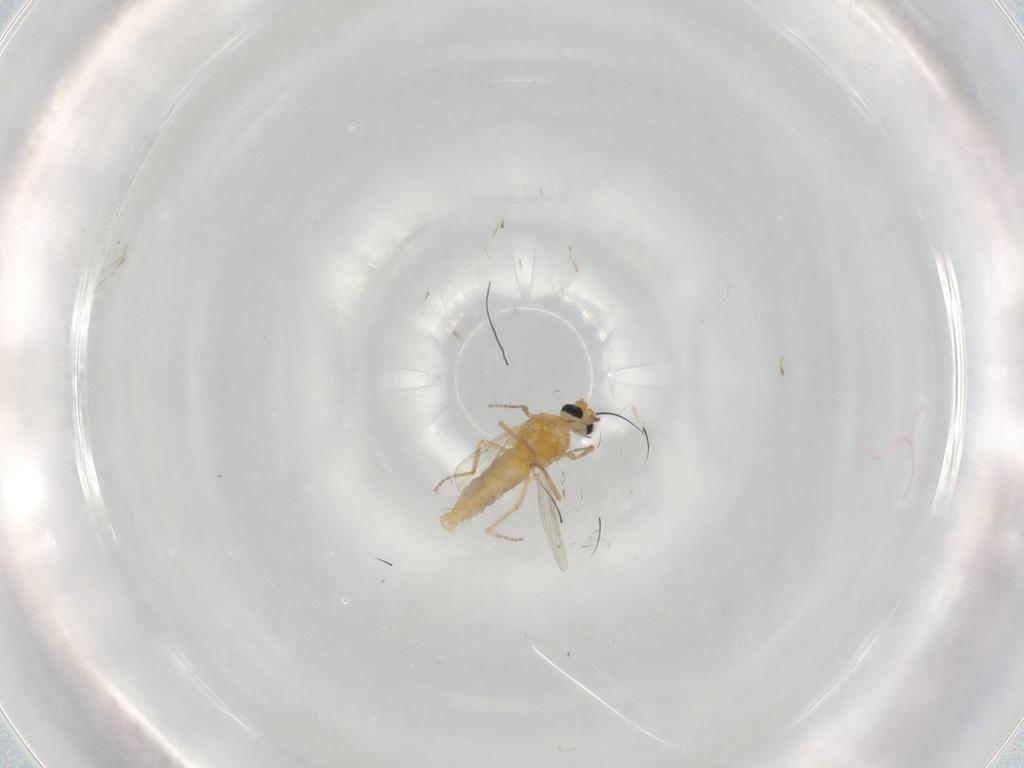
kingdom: Animalia
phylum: Arthropoda
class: Insecta
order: Diptera
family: Ceratopogonidae
